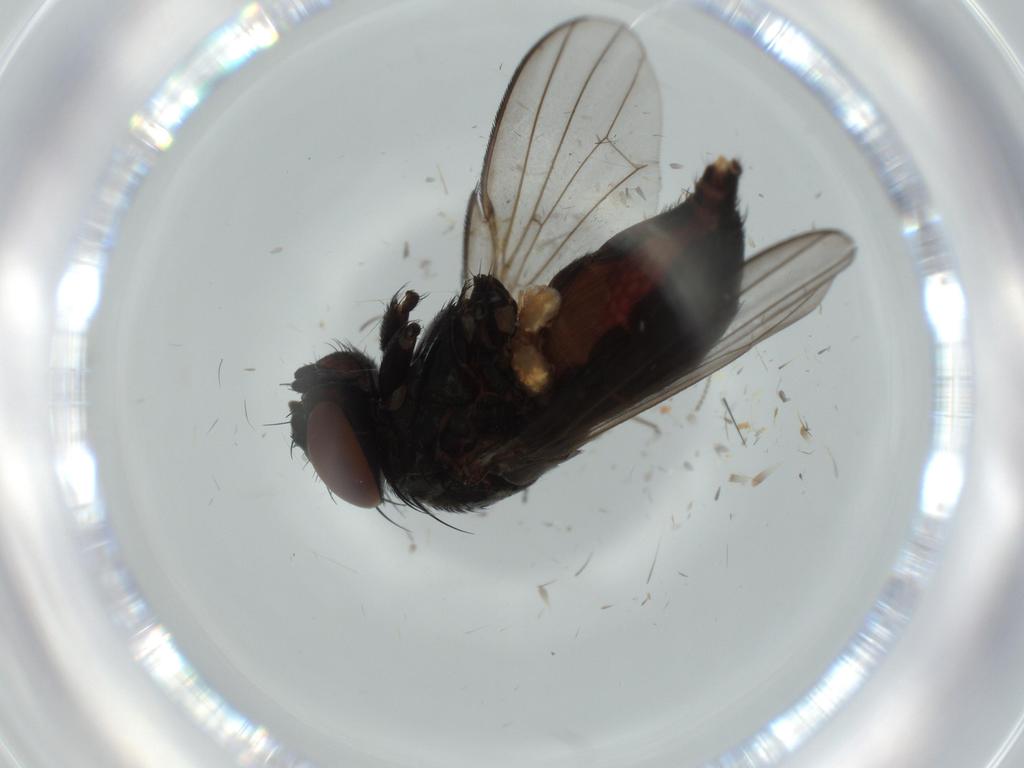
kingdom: Animalia
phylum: Arthropoda
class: Insecta
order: Diptera
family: Milichiidae
